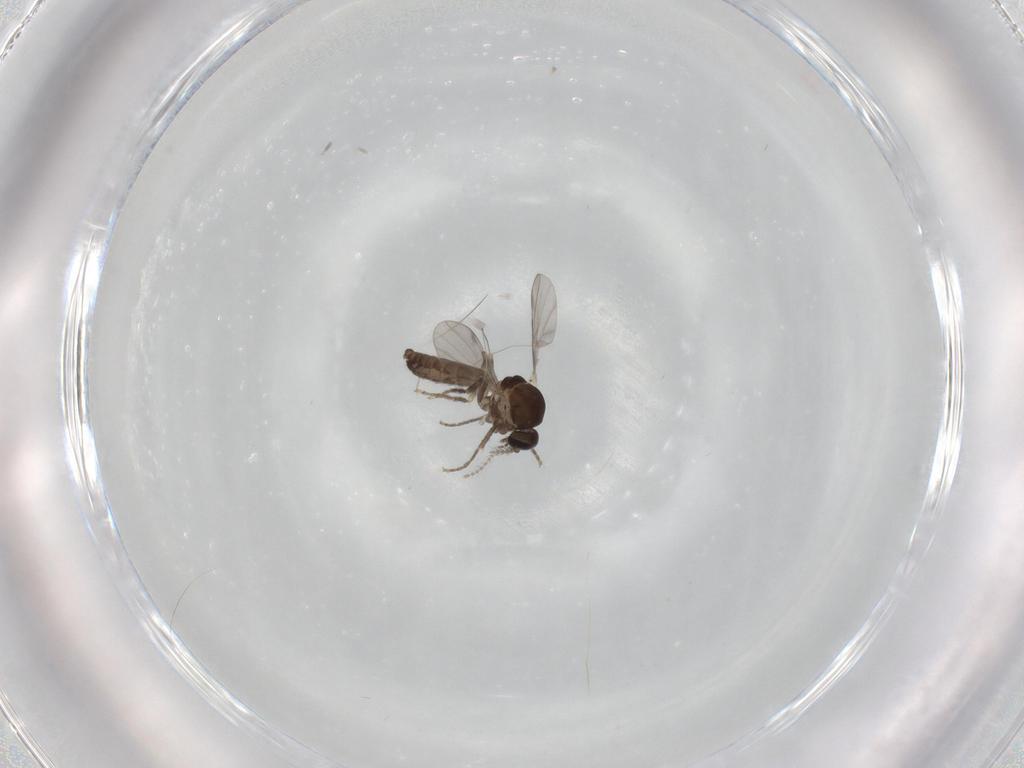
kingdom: Animalia
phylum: Arthropoda
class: Insecta
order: Diptera
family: Ceratopogonidae
